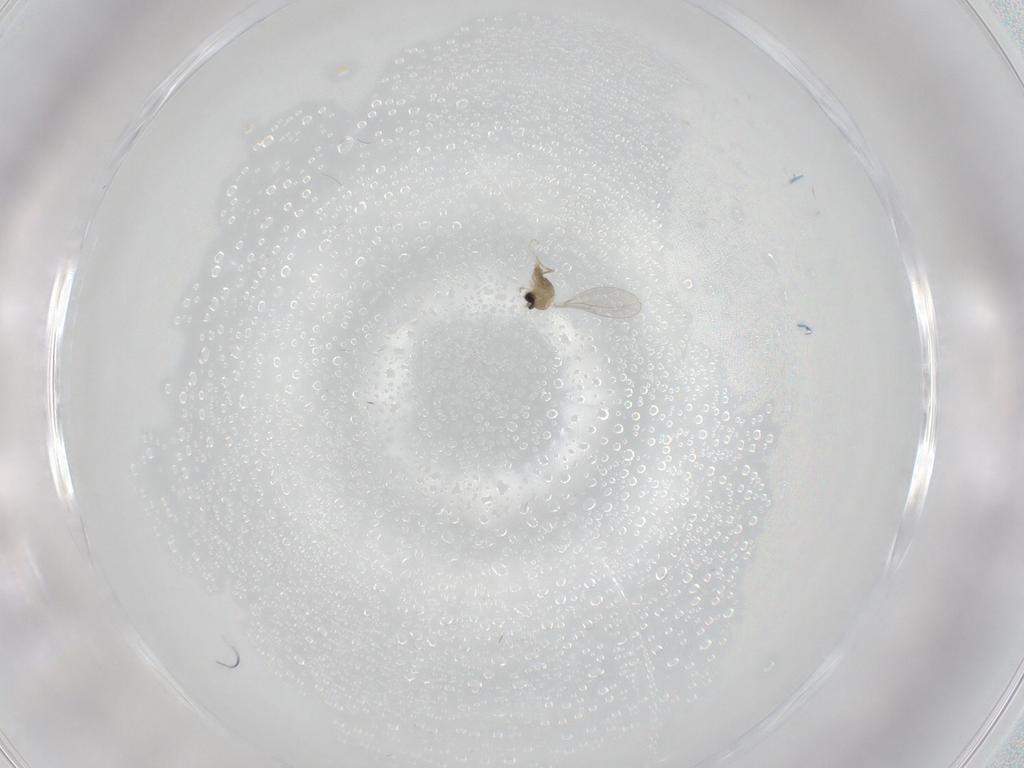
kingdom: Animalia
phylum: Arthropoda
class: Insecta
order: Diptera
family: Cecidomyiidae
